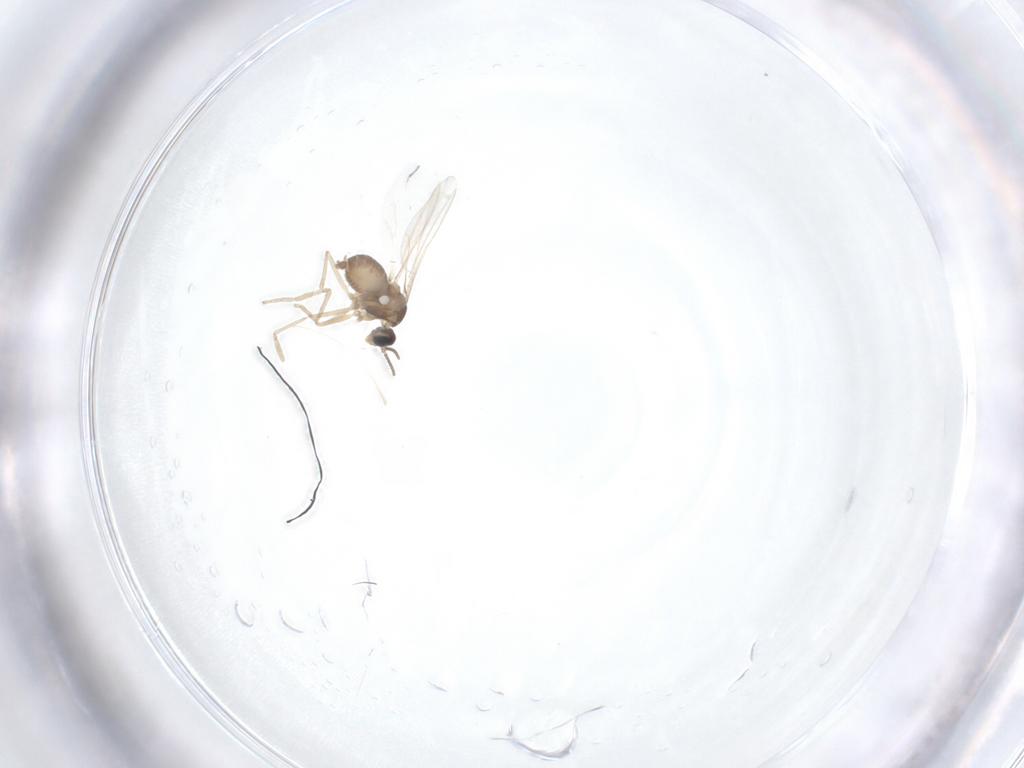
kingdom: Animalia
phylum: Arthropoda
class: Insecta
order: Diptera
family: Cecidomyiidae
